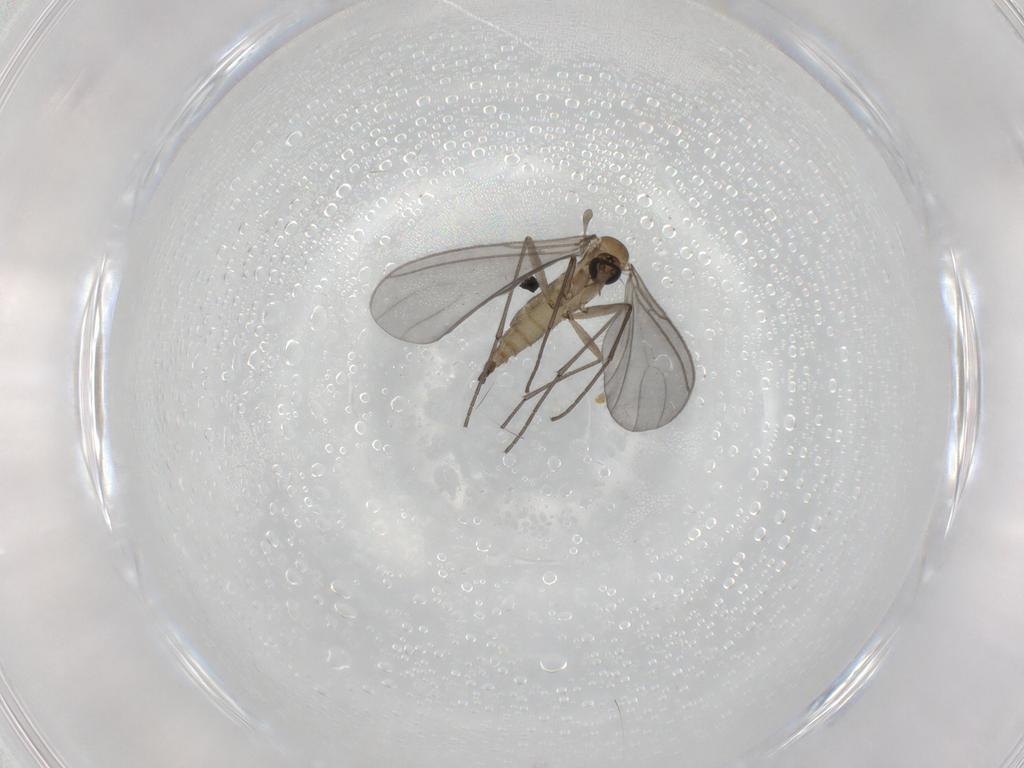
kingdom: Animalia
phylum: Arthropoda
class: Insecta
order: Diptera
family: Sciaridae
